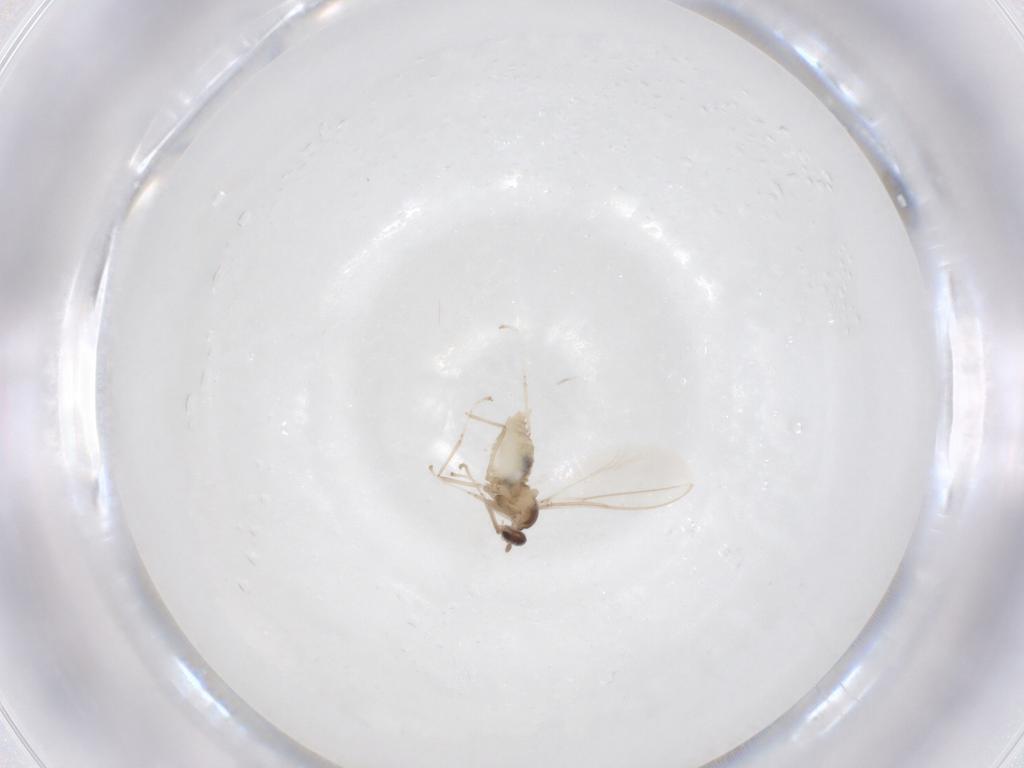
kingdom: Animalia
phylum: Arthropoda
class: Insecta
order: Diptera
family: Cecidomyiidae
